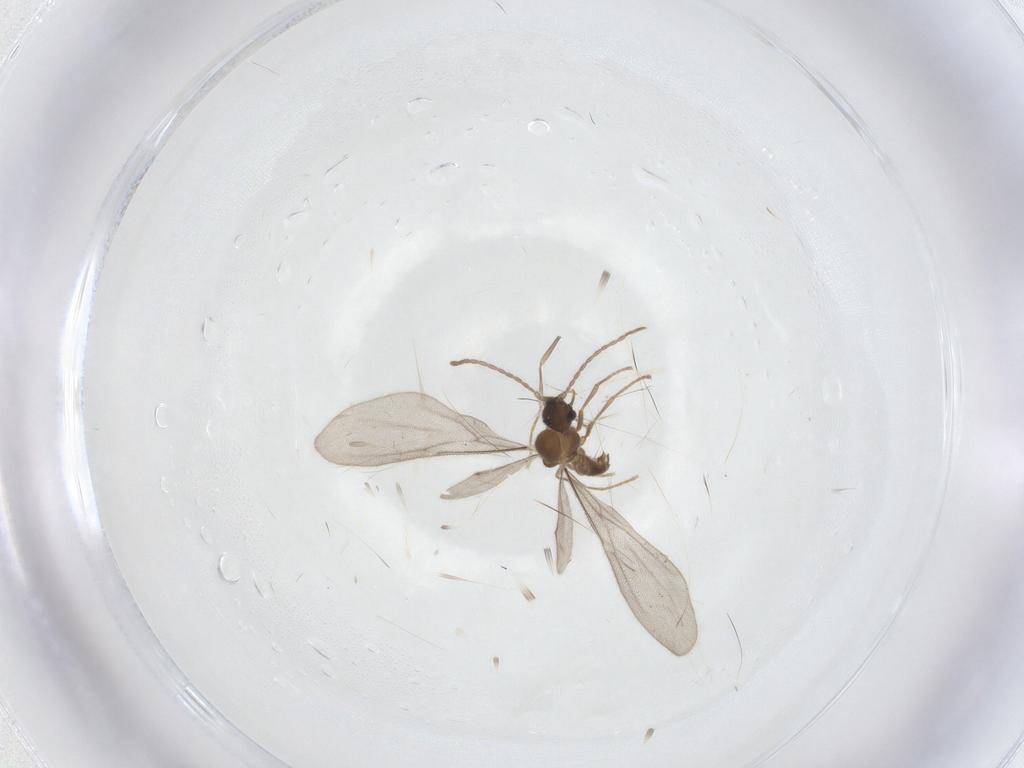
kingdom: Animalia
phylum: Arthropoda
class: Insecta
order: Hymenoptera
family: Formicidae
